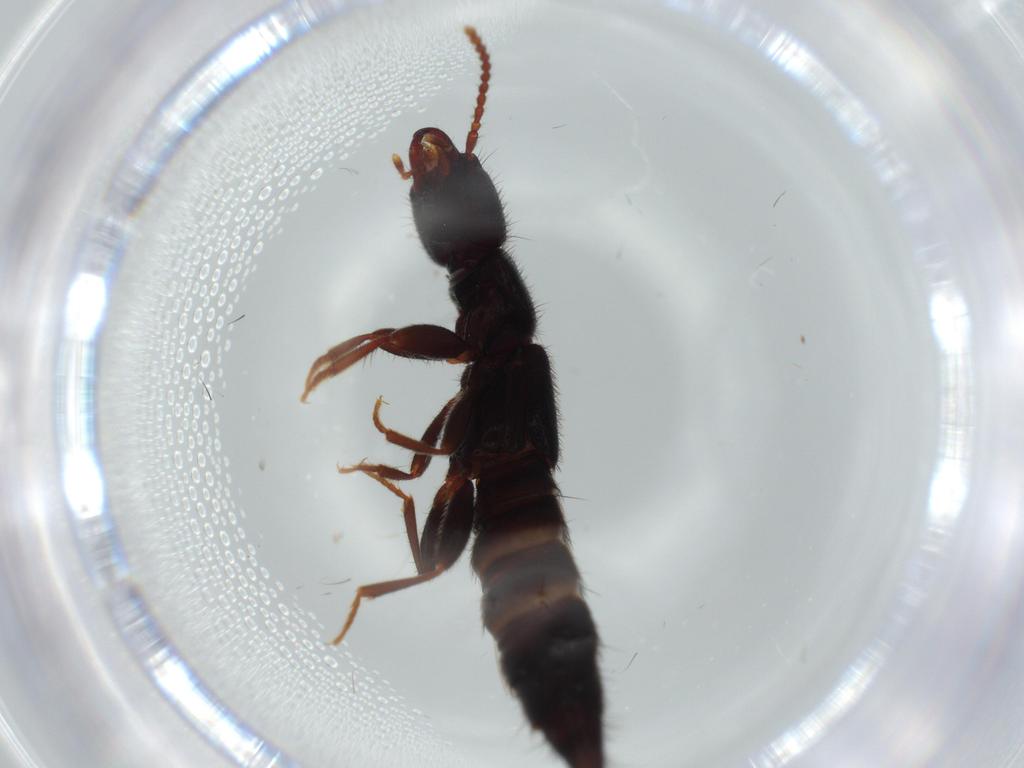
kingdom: Animalia
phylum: Arthropoda
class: Insecta
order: Coleoptera
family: Staphylinidae
